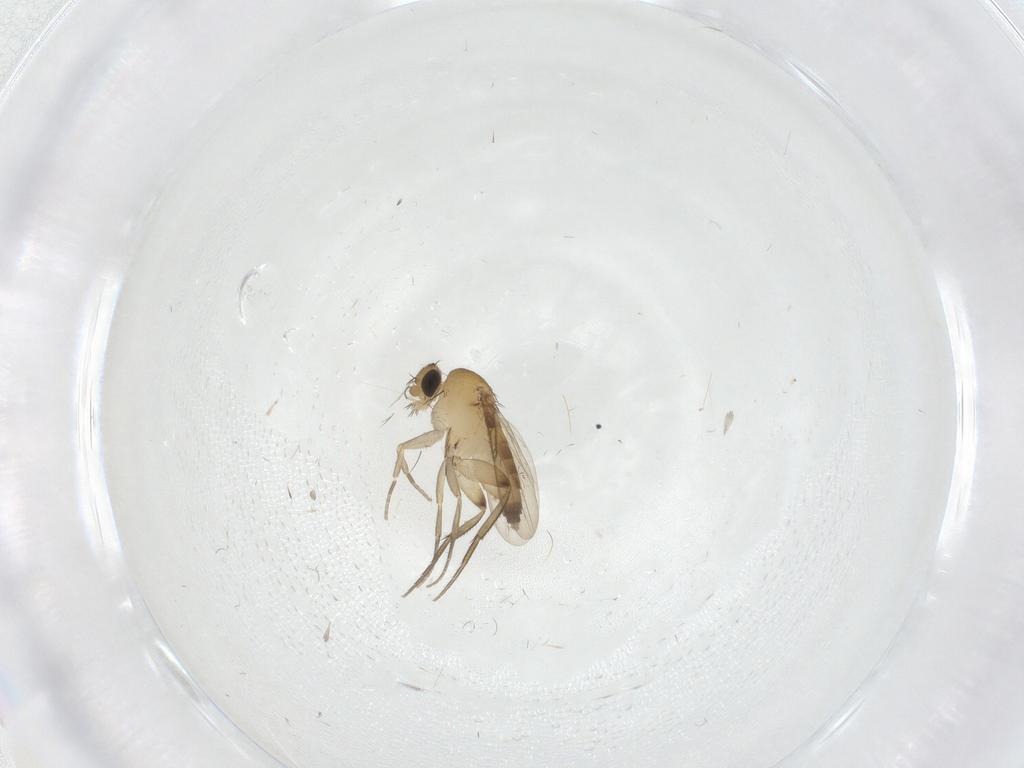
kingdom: Animalia
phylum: Arthropoda
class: Insecta
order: Diptera
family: Phoridae
